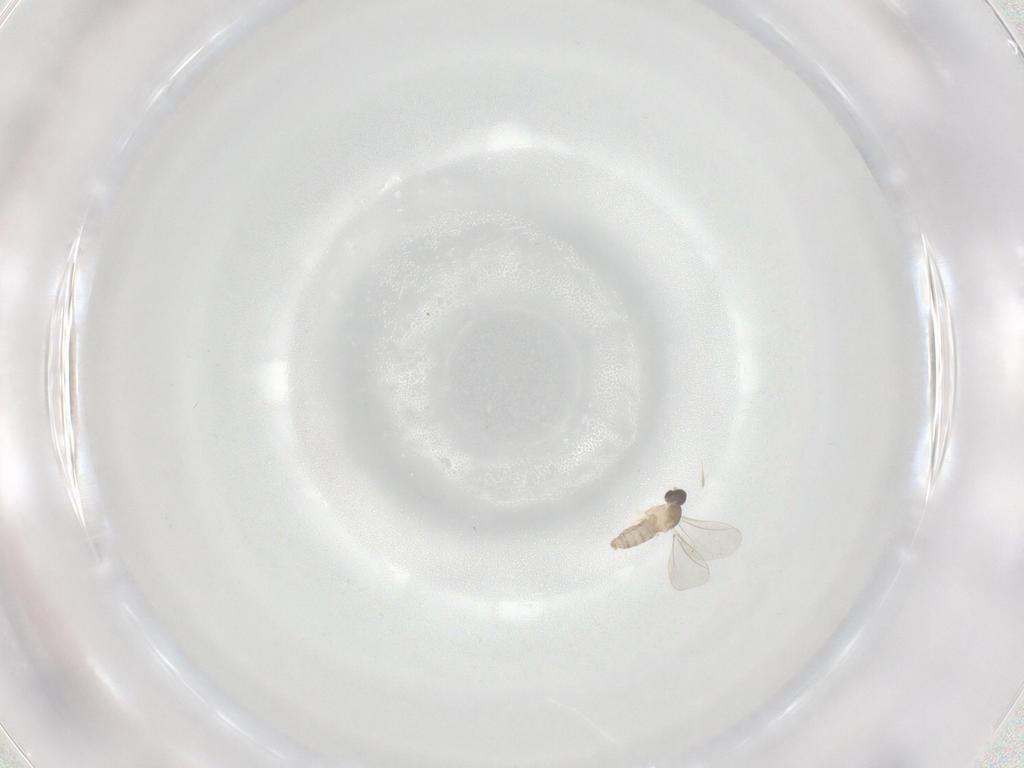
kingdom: Animalia
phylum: Arthropoda
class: Insecta
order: Diptera
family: Cecidomyiidae
